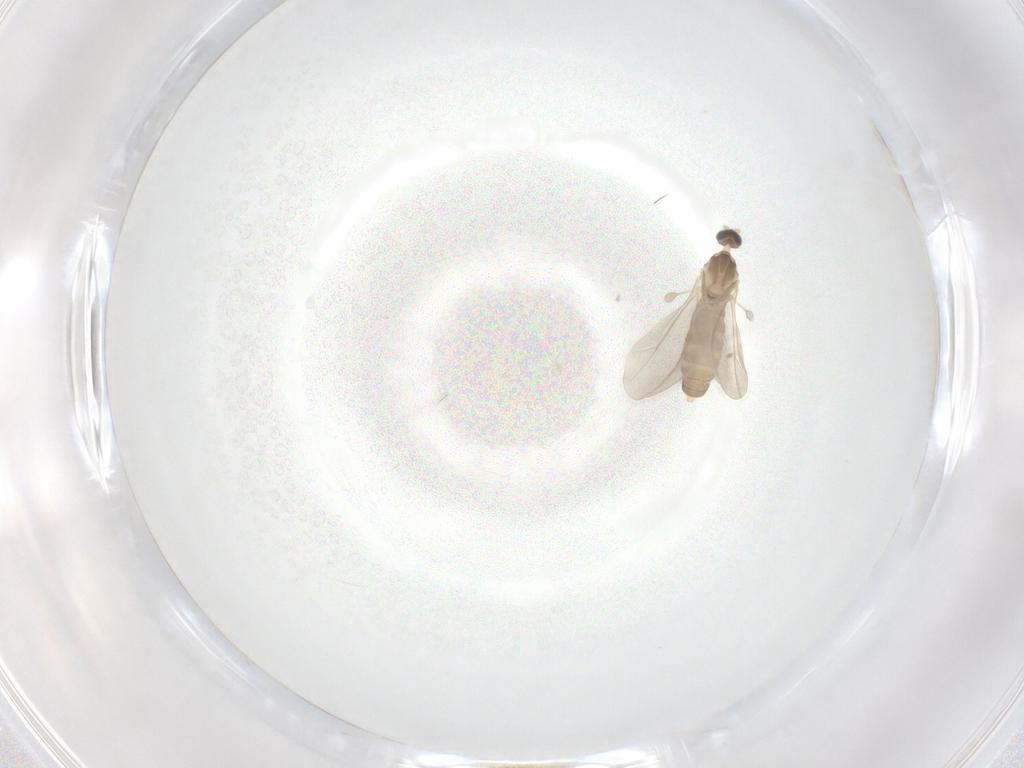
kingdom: Animalia
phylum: Arthropoda
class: Insecta
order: Diptera
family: Cecidomyiidae
